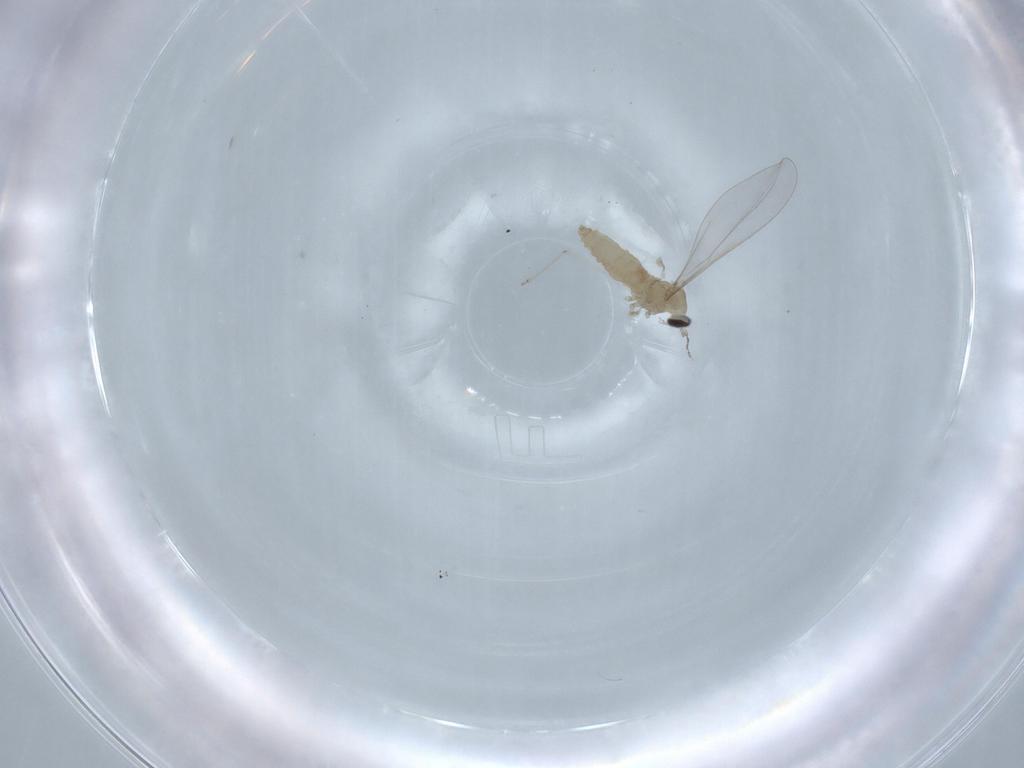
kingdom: Animalia
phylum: Arthropoda
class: Insecta
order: Diptera
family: Cecidomyiidae
